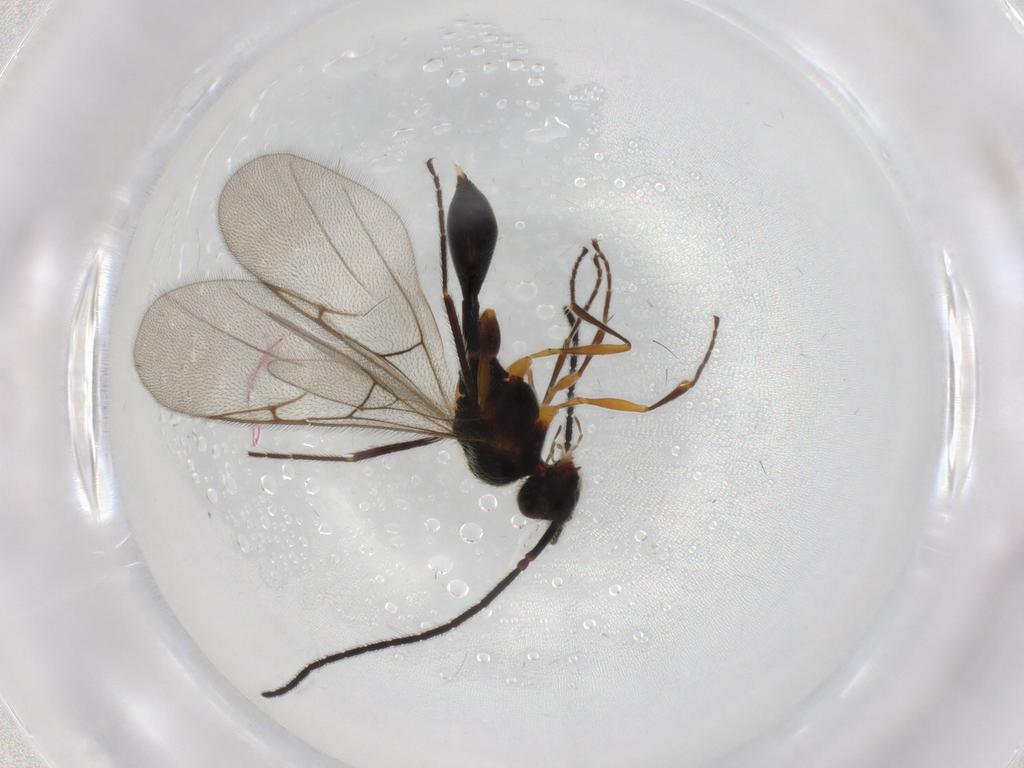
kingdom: Animalia
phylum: Arthropoda
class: Insecta
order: Hymenoptera
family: Diapriidae
